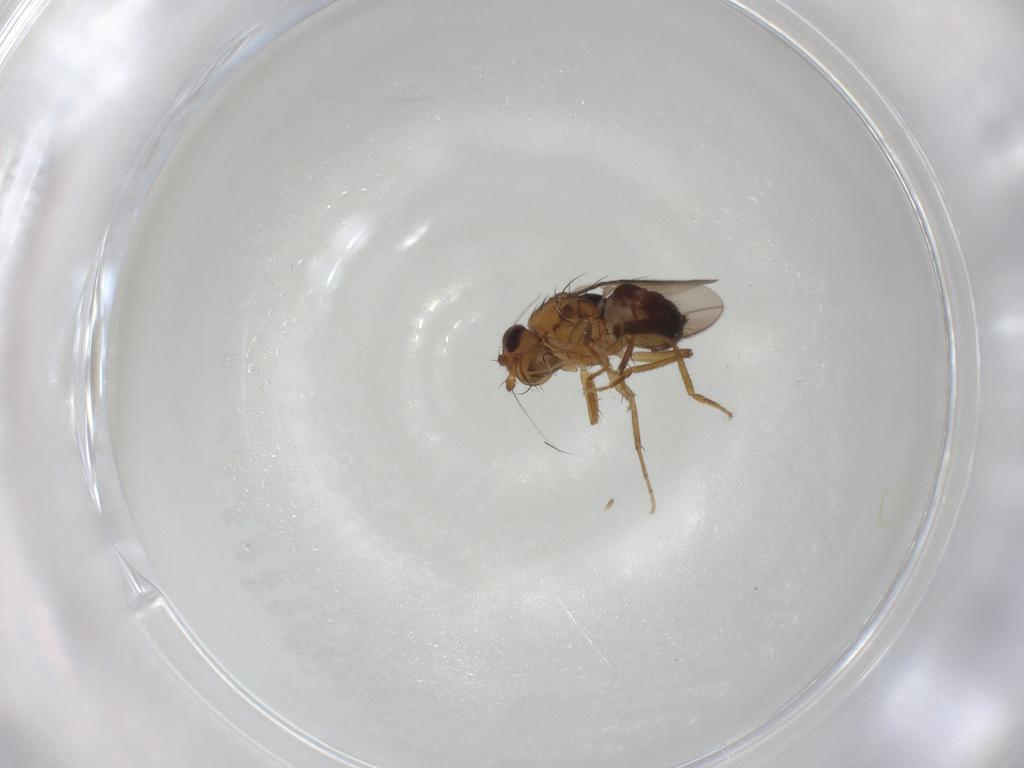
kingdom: Animalia
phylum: Arthropoda
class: Insecta
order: Diptera
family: Sphaeroceridae
